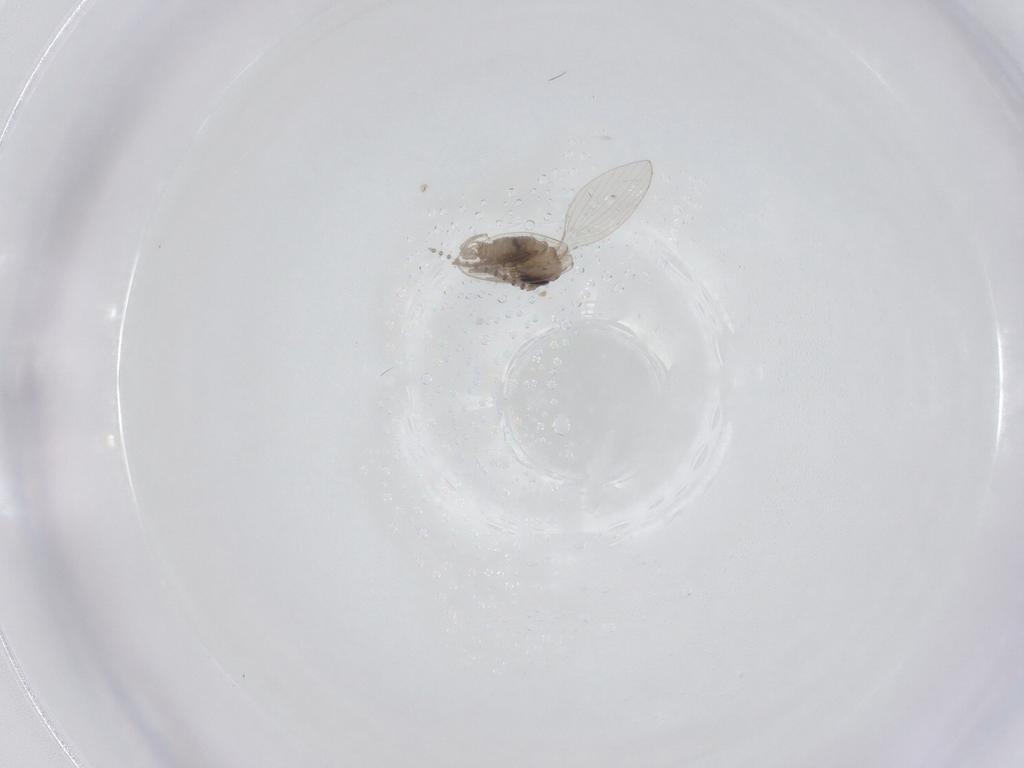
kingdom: Animalia
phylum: Arthropoda
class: Insecta
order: Diptera
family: Psychodidae
